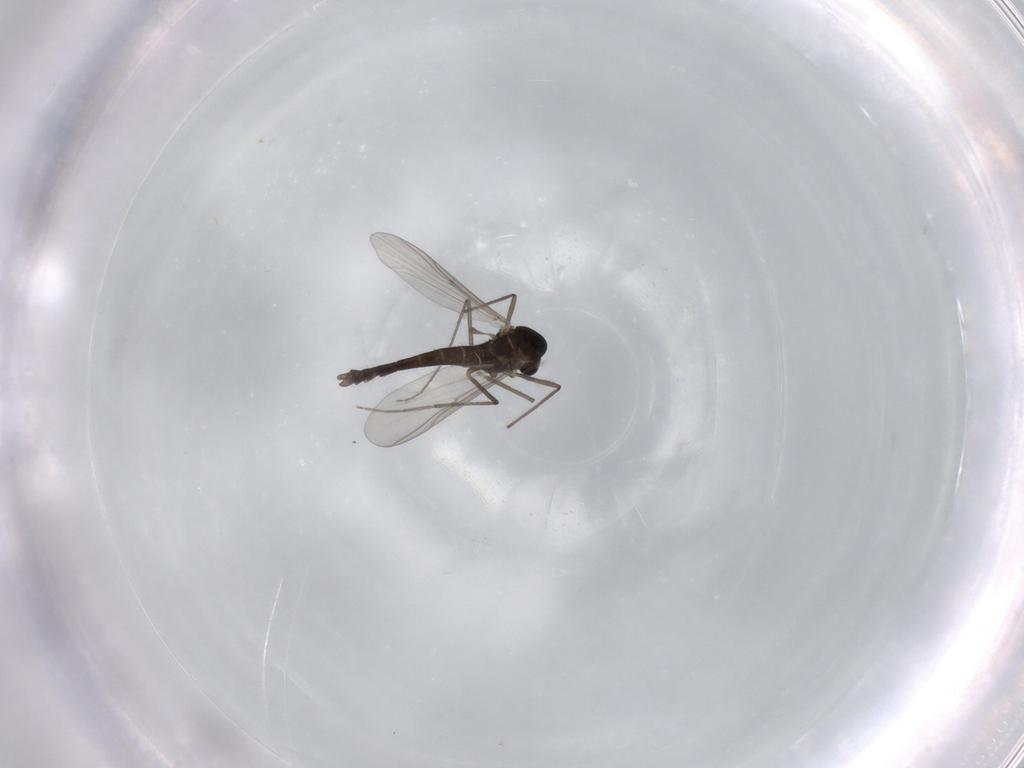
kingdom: Animalia
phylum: Arthropoda
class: Insecta
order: Diptera
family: Chironomidae
